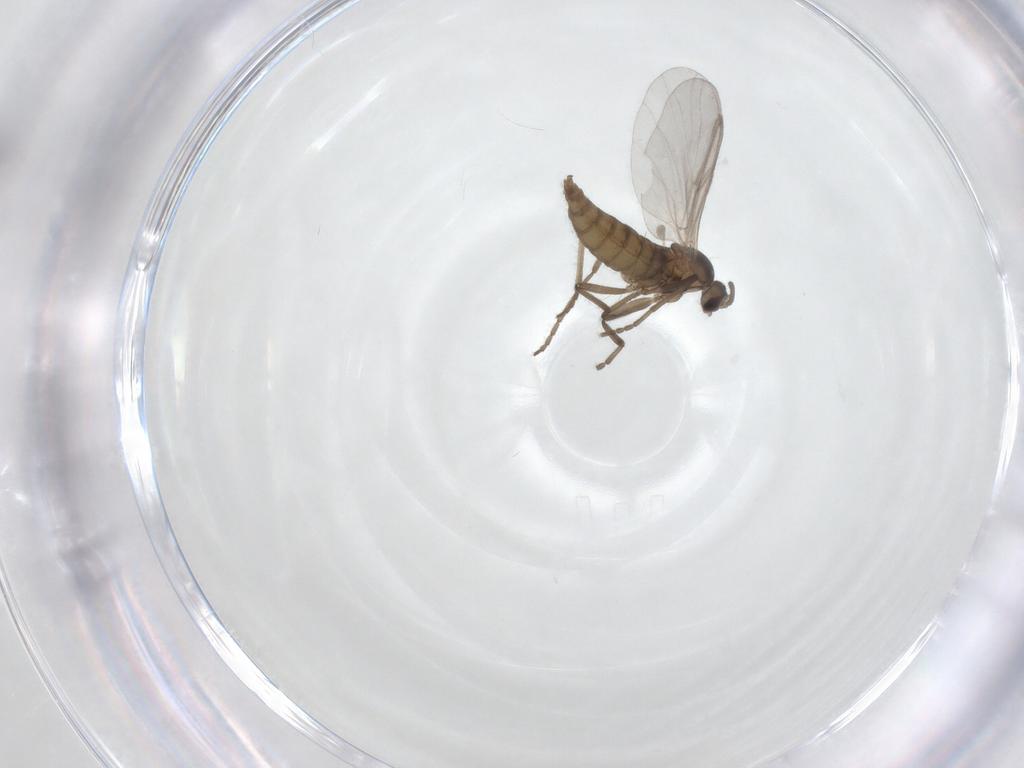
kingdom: Animalia
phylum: Arthropoda
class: Insecta
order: Diptera
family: Cecidomyiidae
